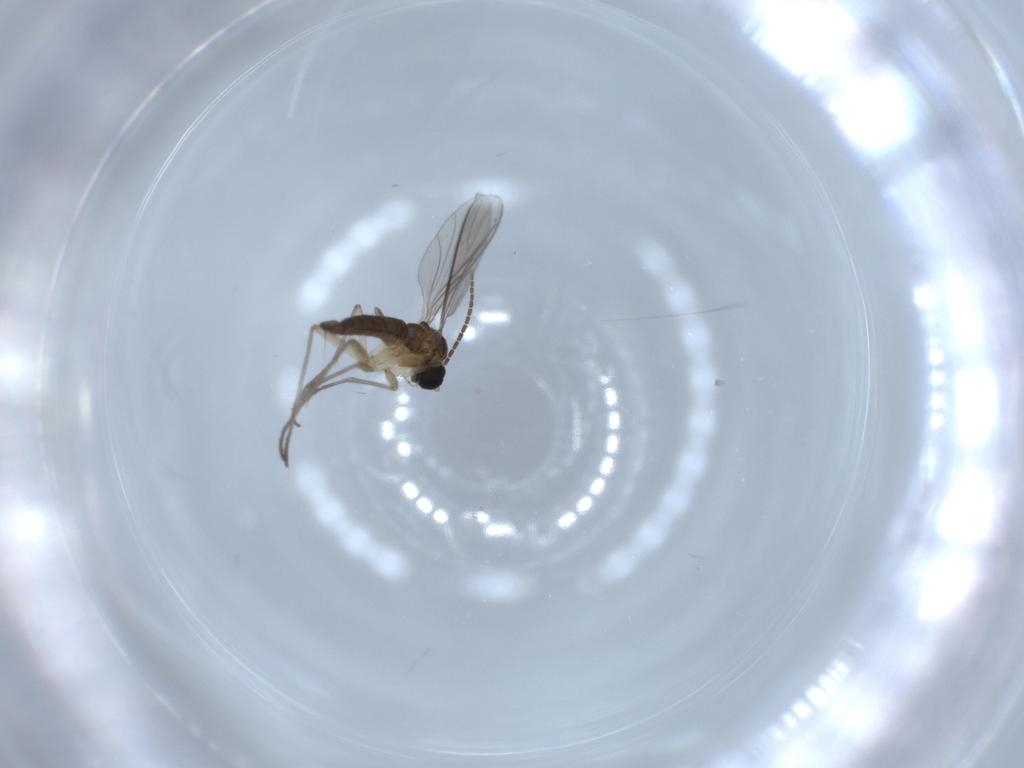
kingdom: Animalia
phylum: Arthropoda
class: Insecta
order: Diptera
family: Sciaridae
